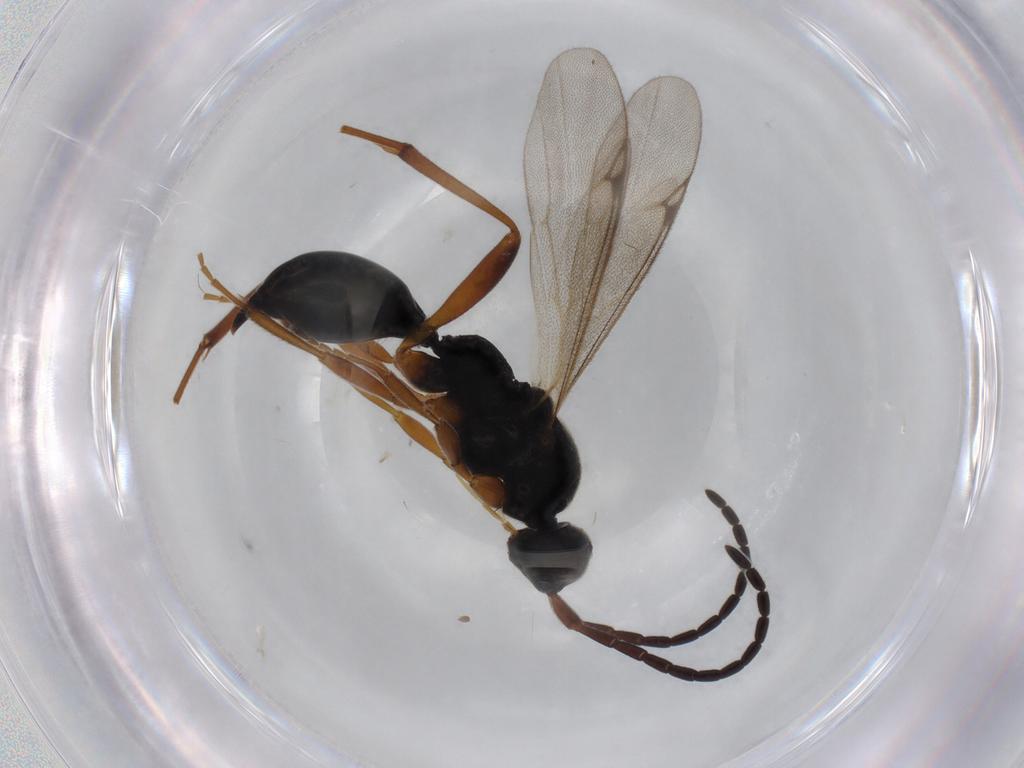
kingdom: Animalia
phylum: Arthropoda
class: Insecta
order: Hymenoptera
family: Proctotrupidae
